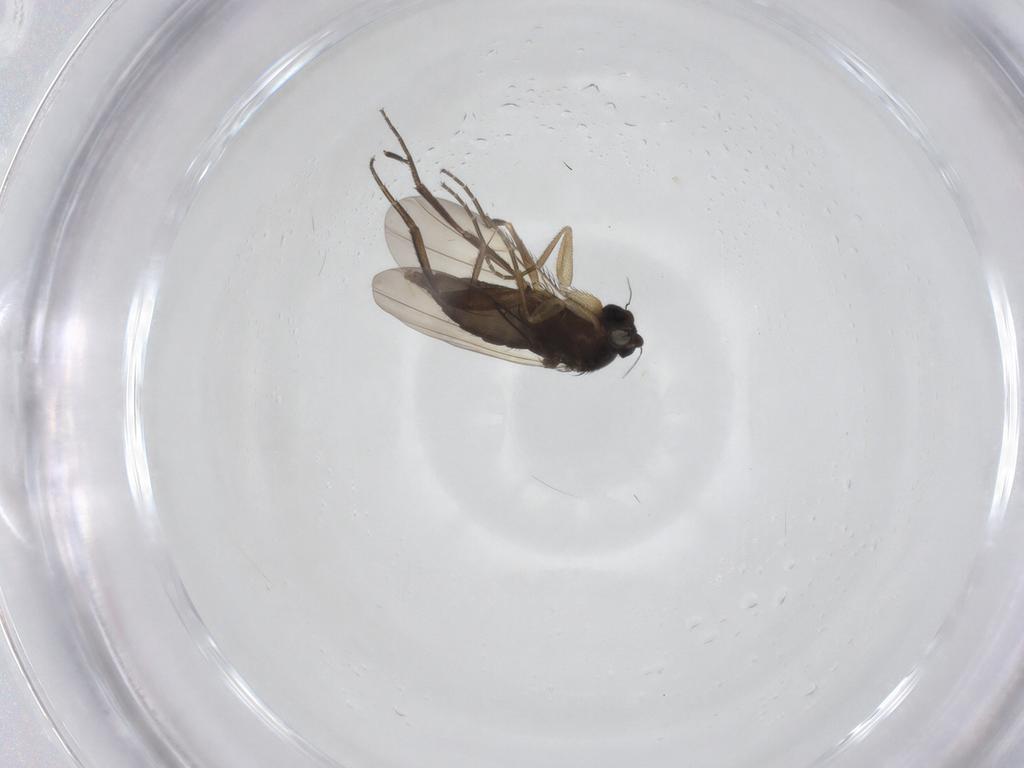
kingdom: Animalia
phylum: Arthropoda
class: Insecta
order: Diptera
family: Phoridae
